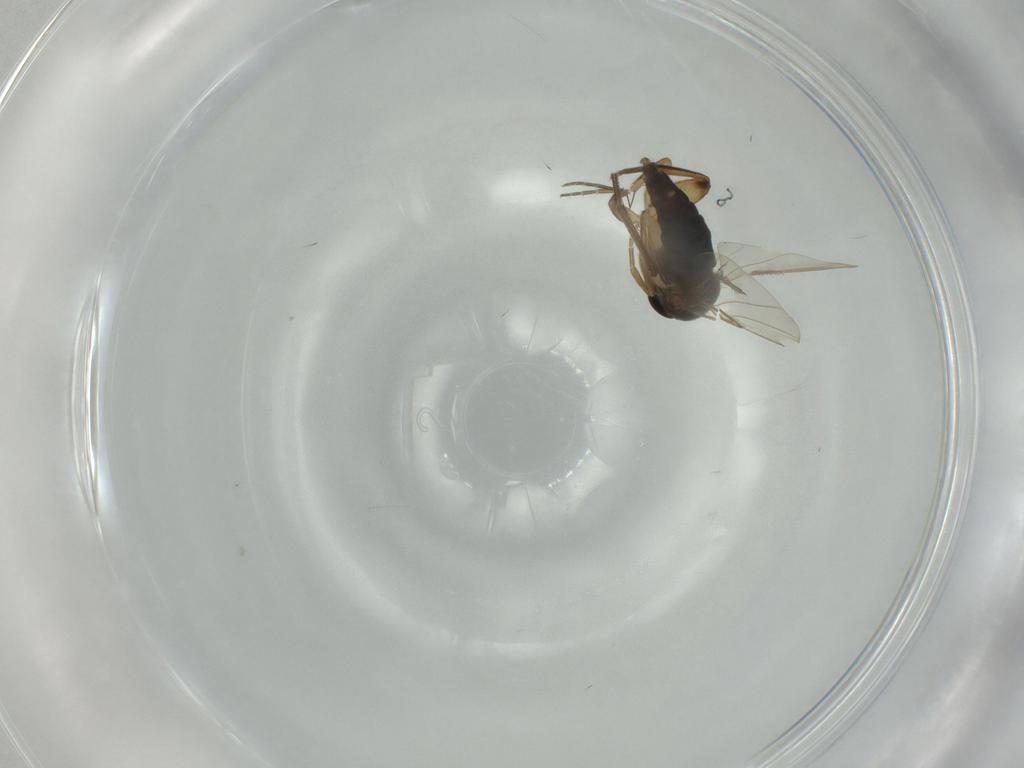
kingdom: Animalia
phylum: Arthropoda
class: Insecta
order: Diptera
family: Phoridae
